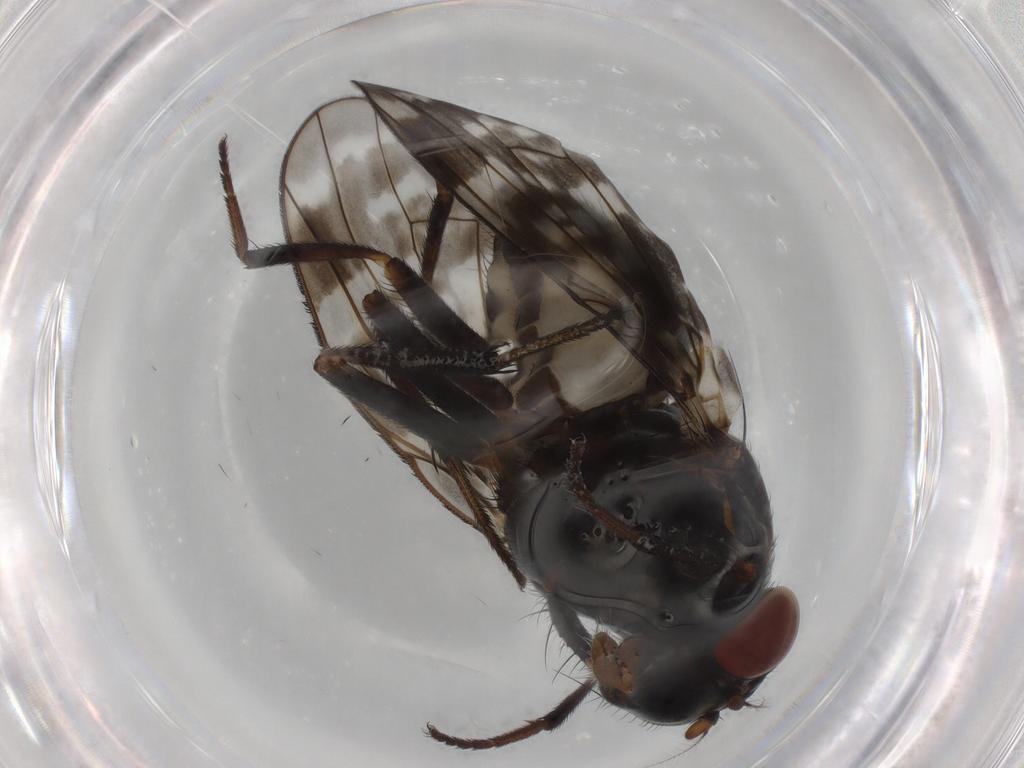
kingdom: Animalia
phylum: Arthropoda
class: Insecta
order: Diptera
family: Lauxaniidae
